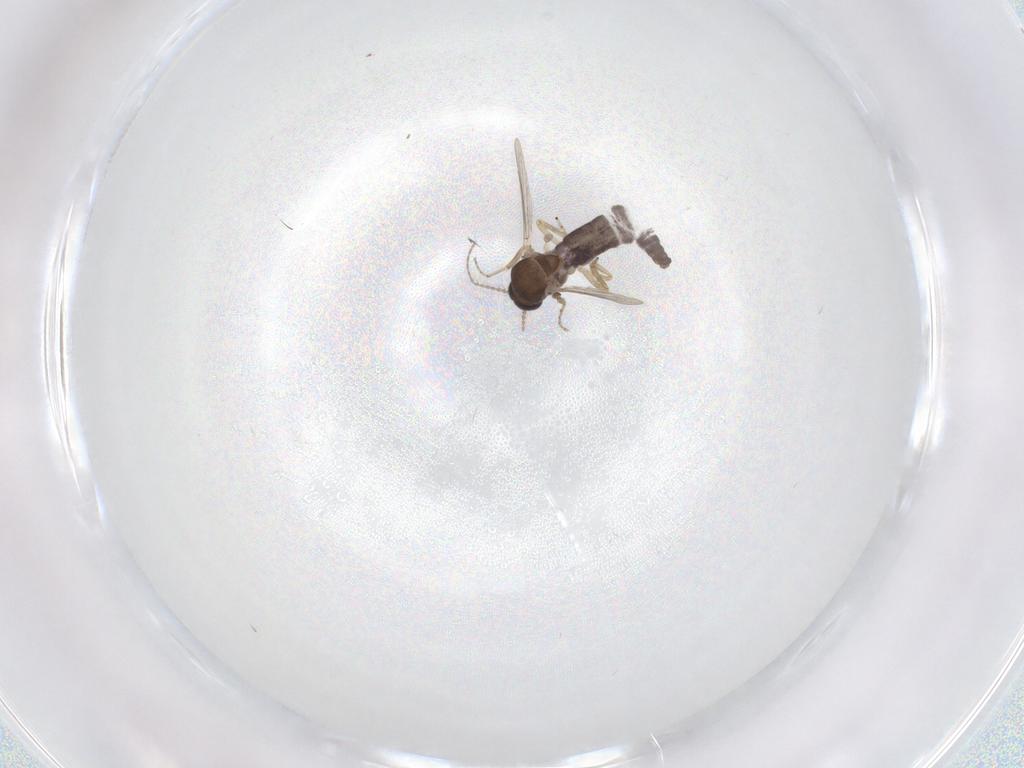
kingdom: Animalia
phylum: Arthropoda
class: Insecta
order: Diptera
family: Ceratopogonidae
